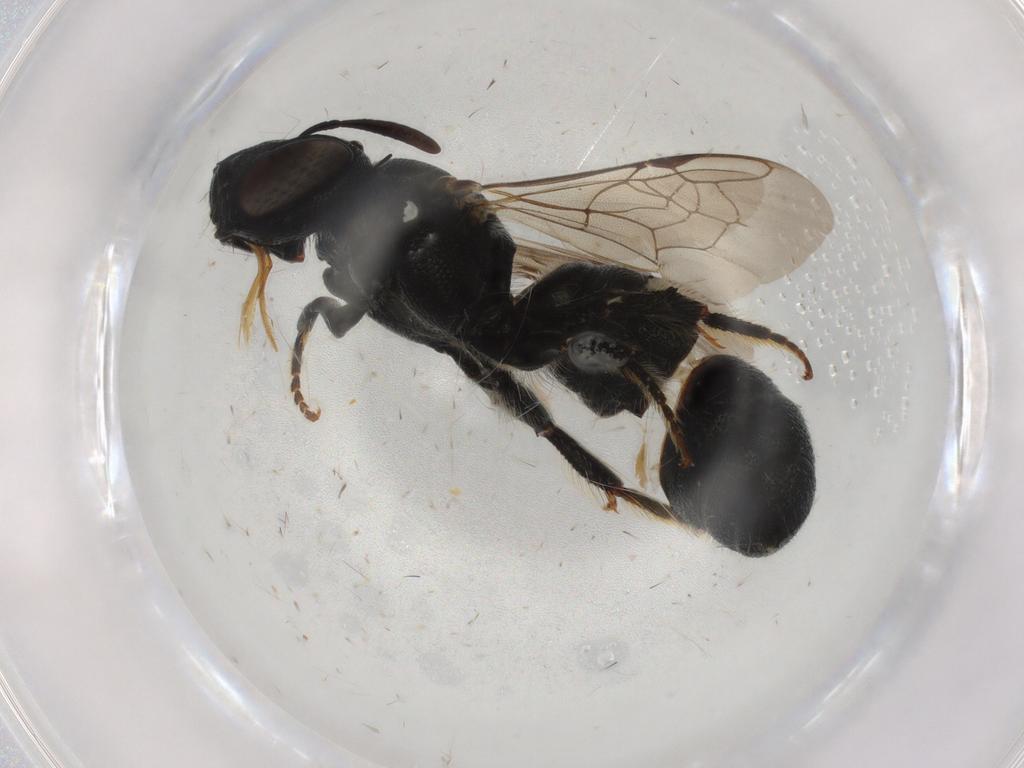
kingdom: Animalia
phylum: Arthropoda
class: Insecta
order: Hymenoptera
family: Apidae
